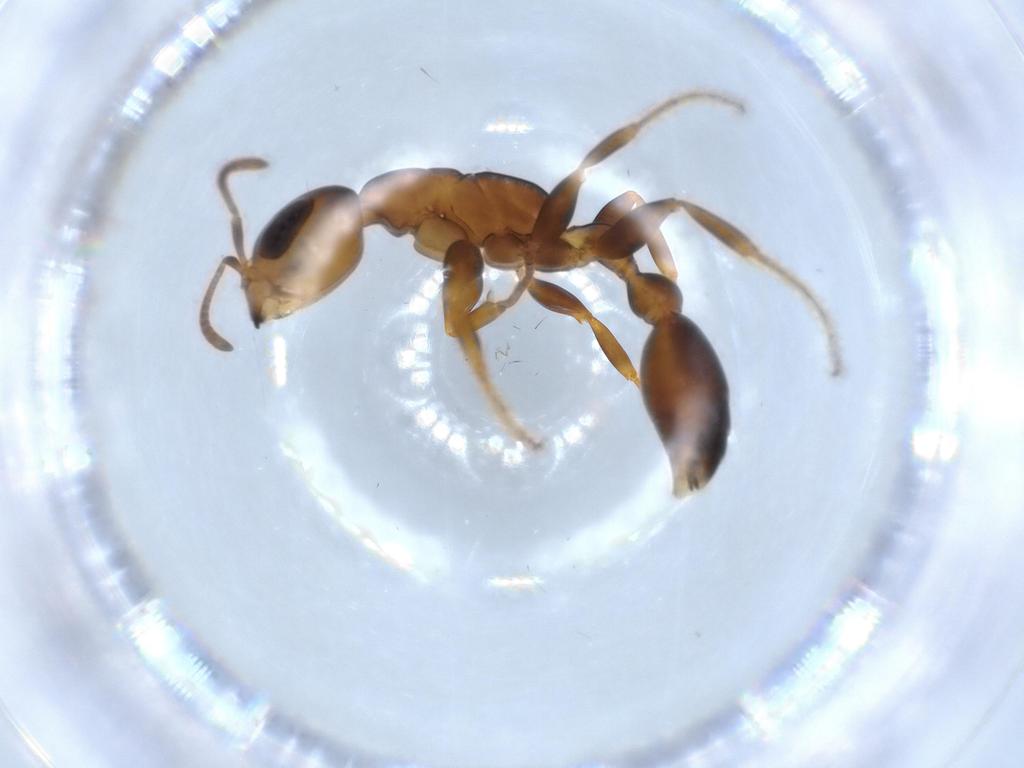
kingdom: Animalia
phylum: Arthropoda
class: Insecta
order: Hymenoptera
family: Formicidae
